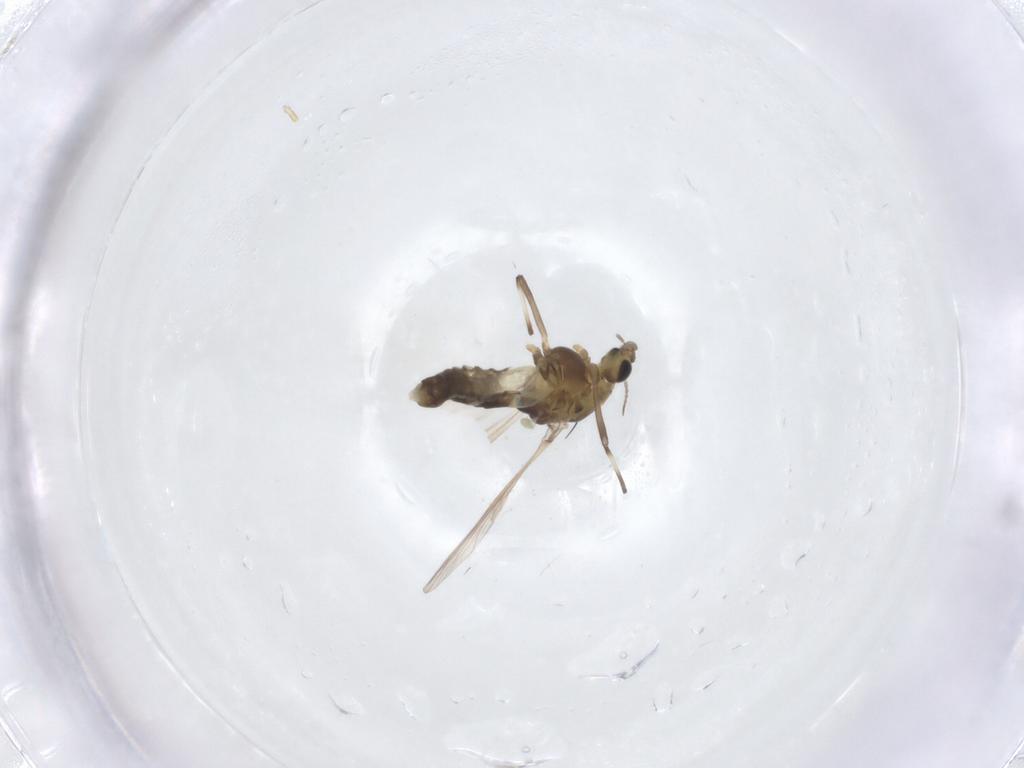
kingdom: Animalia
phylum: Arthropoda
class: Insecta
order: Diptera
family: Chironomidae
